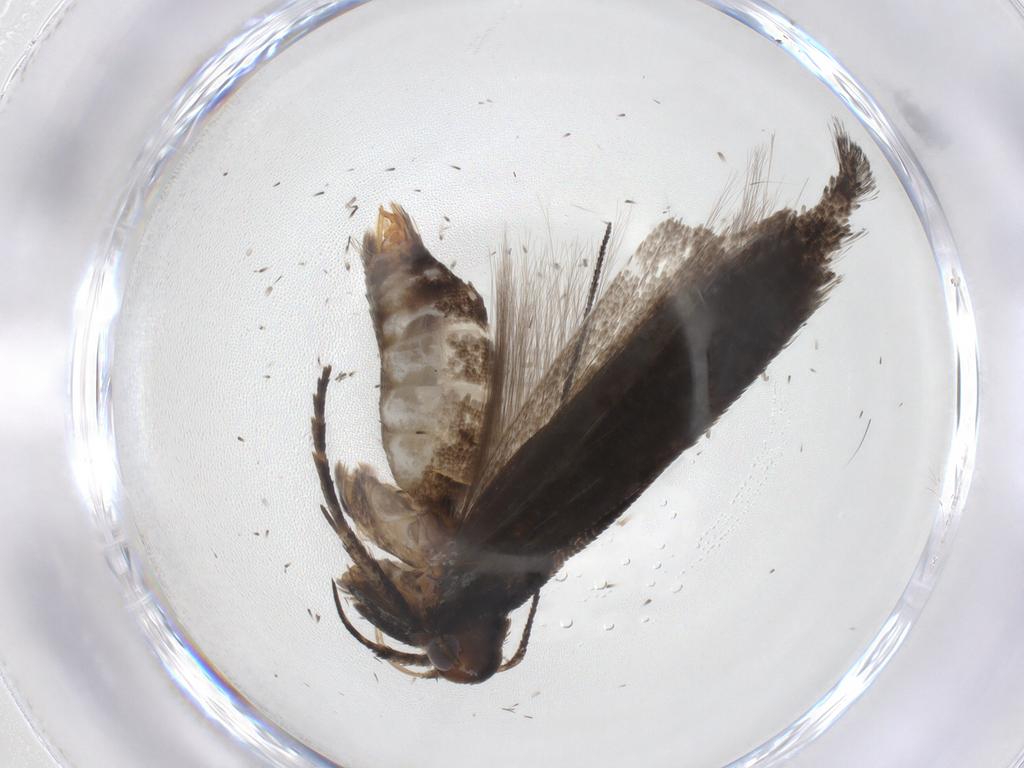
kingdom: Animalia
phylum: Arthropoda
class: Insecta
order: Lepidoptera
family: Gelechiidae
